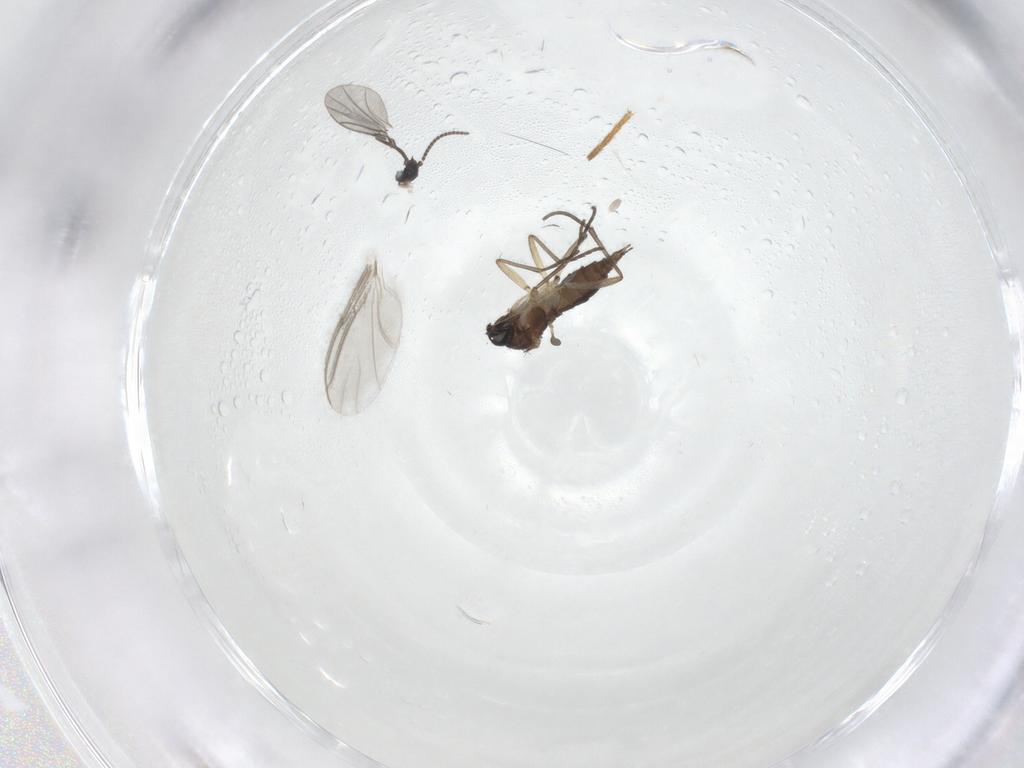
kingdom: Animalia
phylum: Arthropoda
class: Insecta
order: Diptera
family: Sciaridae
